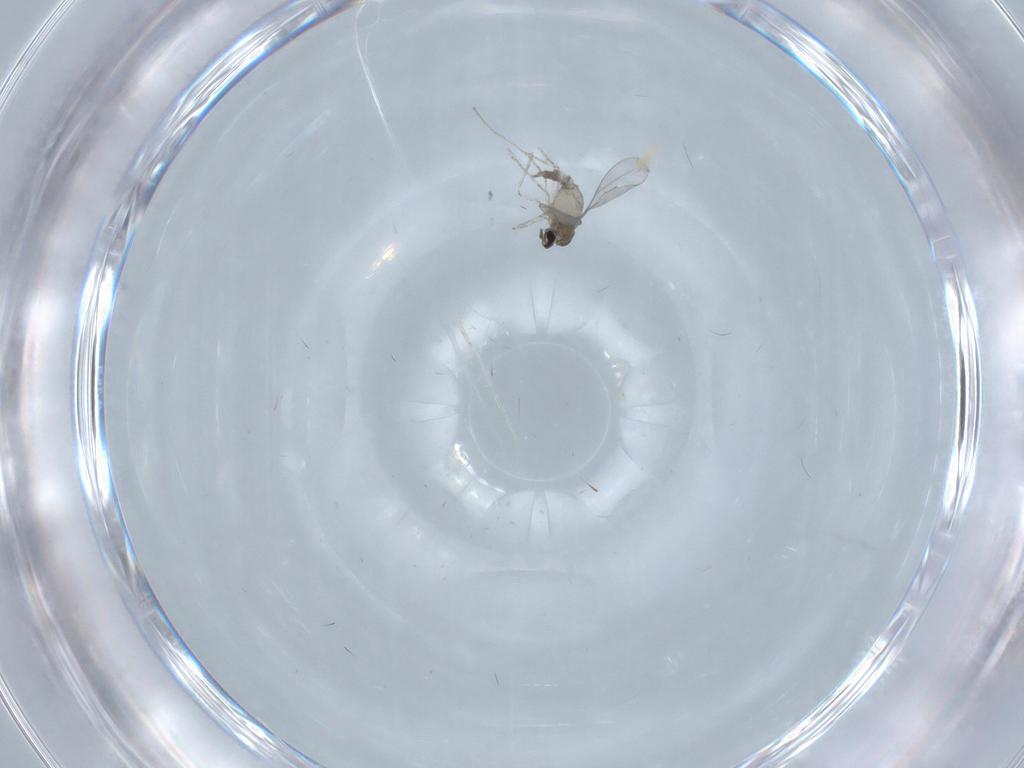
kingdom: Animalia
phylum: Arthropoda
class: Insecta
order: Diptera
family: Cecidomyiidae
